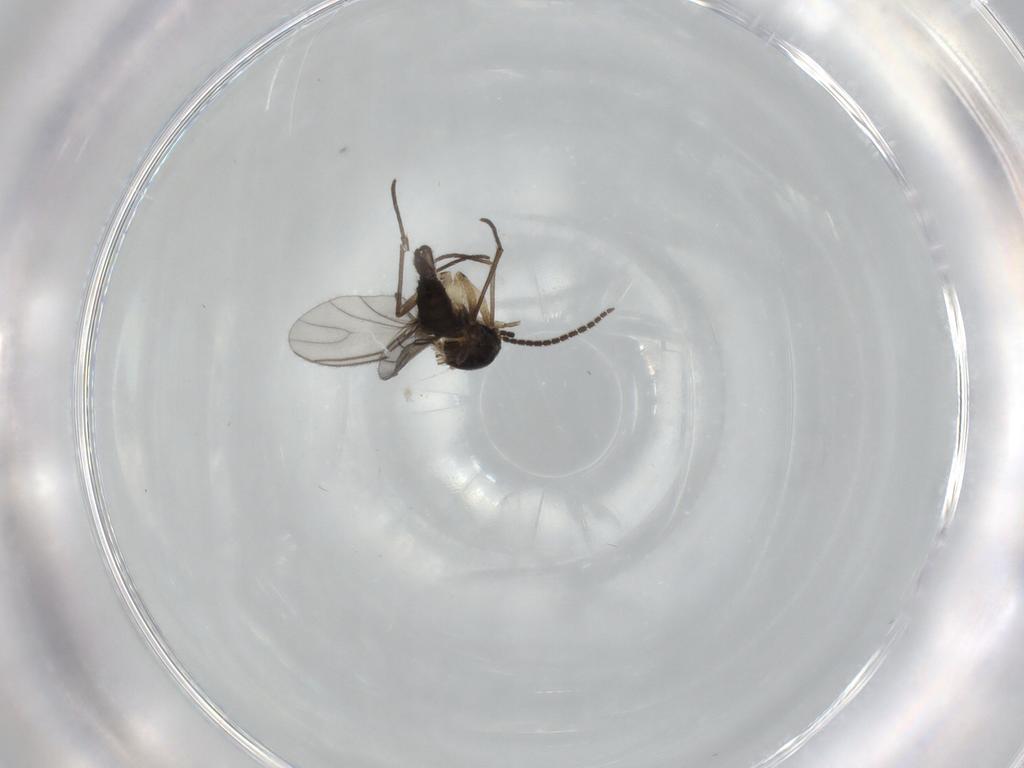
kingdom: Animalia
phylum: Arthropoda
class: Insecta
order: Diptera
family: Sciaridae
